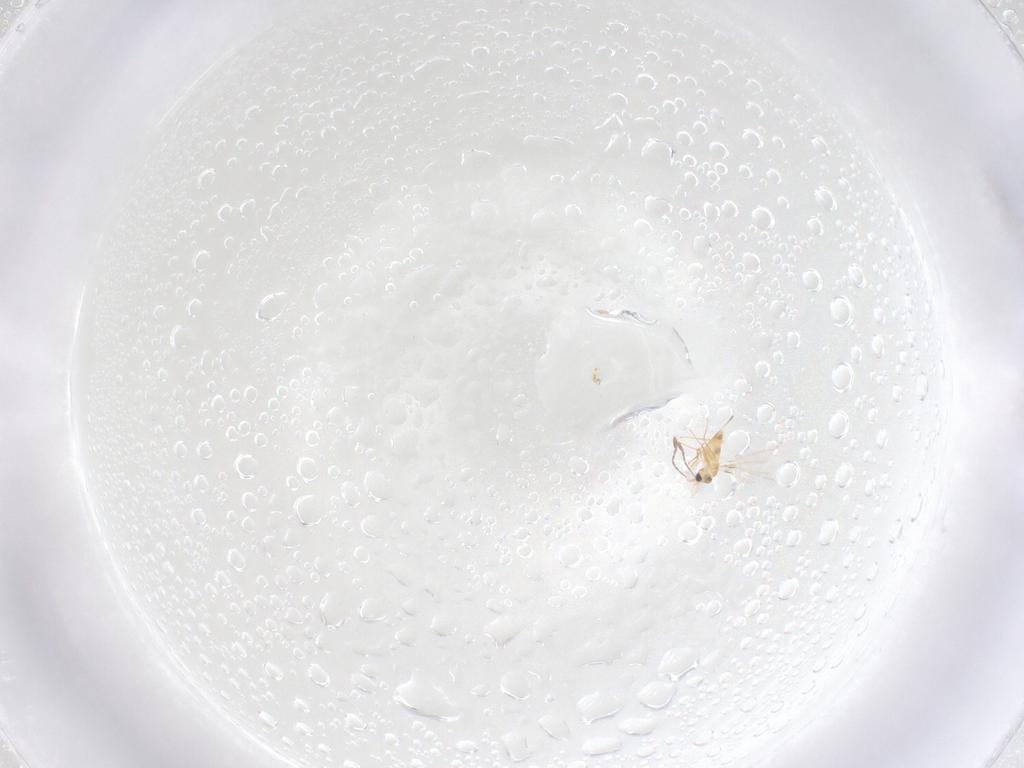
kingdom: Animalia
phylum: Arthropoda
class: Insecta
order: Hymenoptera
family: Mymaridae
